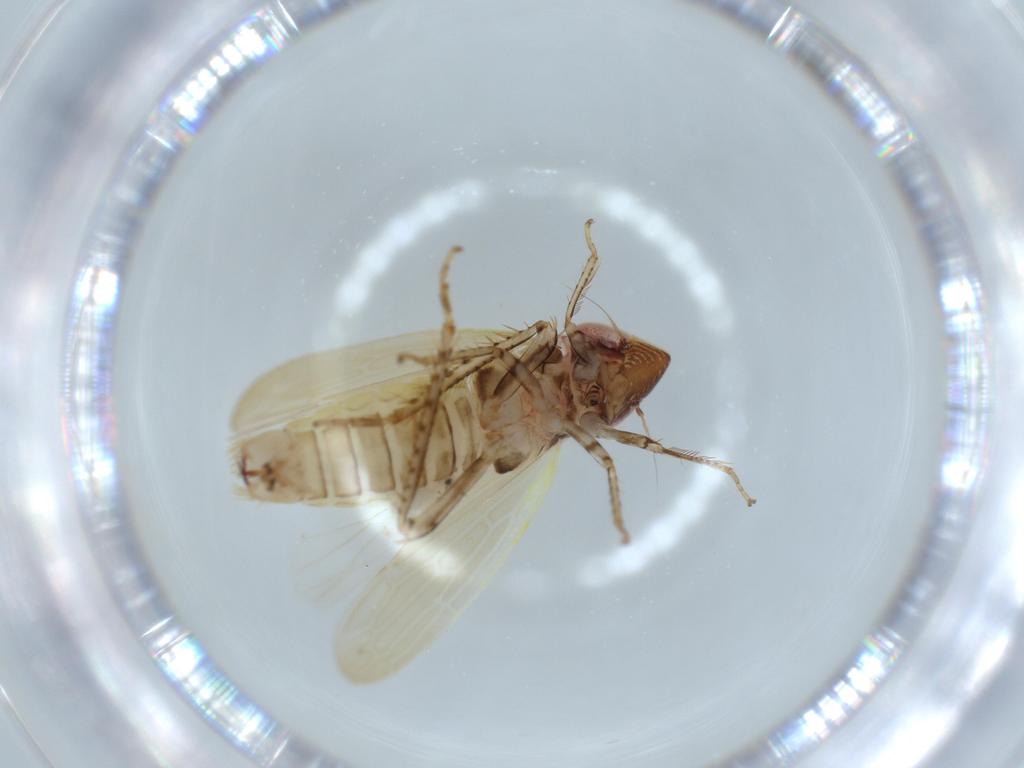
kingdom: Animalia
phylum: Arthropoda
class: Insecta
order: Hemiptera
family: Cicadellidae
